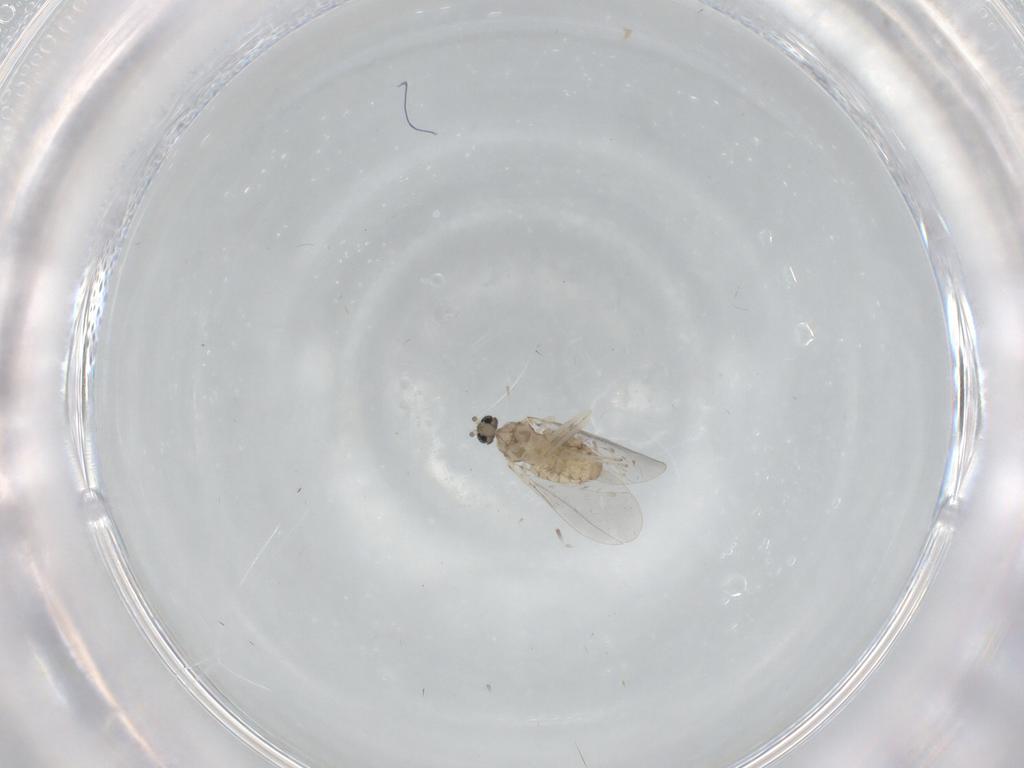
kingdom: Animalia
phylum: Arthropoda
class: Insecta
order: Diptera
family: Cecidomyiidae
